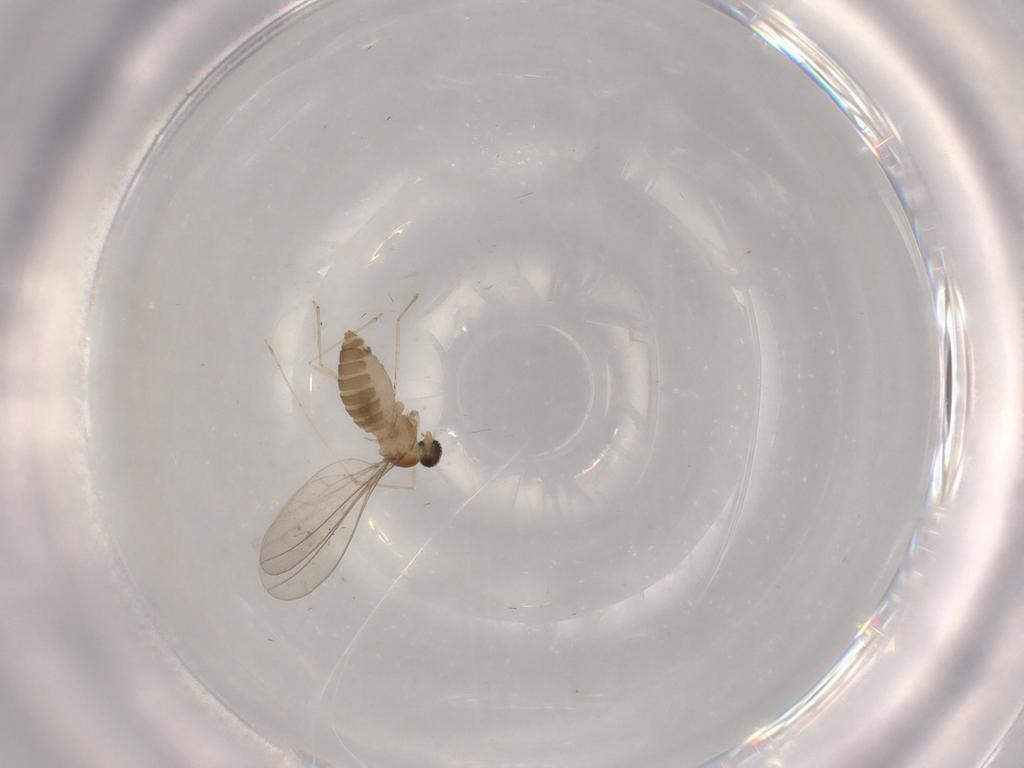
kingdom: Animalia
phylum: Arthropoda
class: Insecta
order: Diptera
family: Cecidomyiidae
